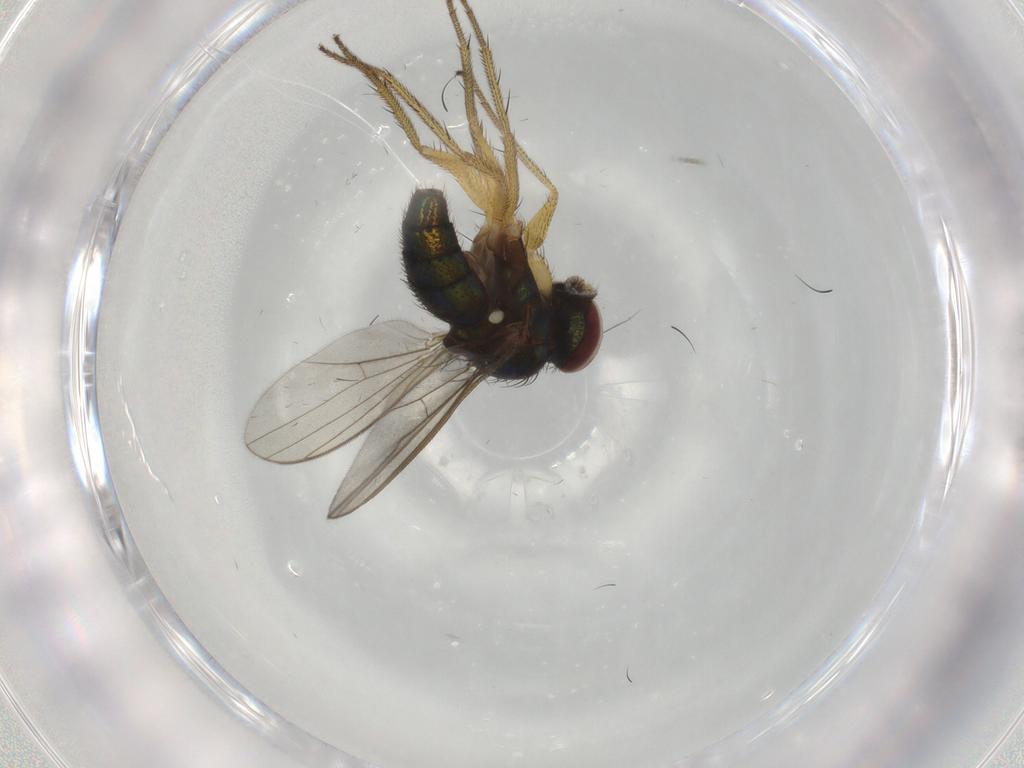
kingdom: Animalia
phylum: Arthropoda
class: Insecta
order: Diptera
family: Dolichopodidae
